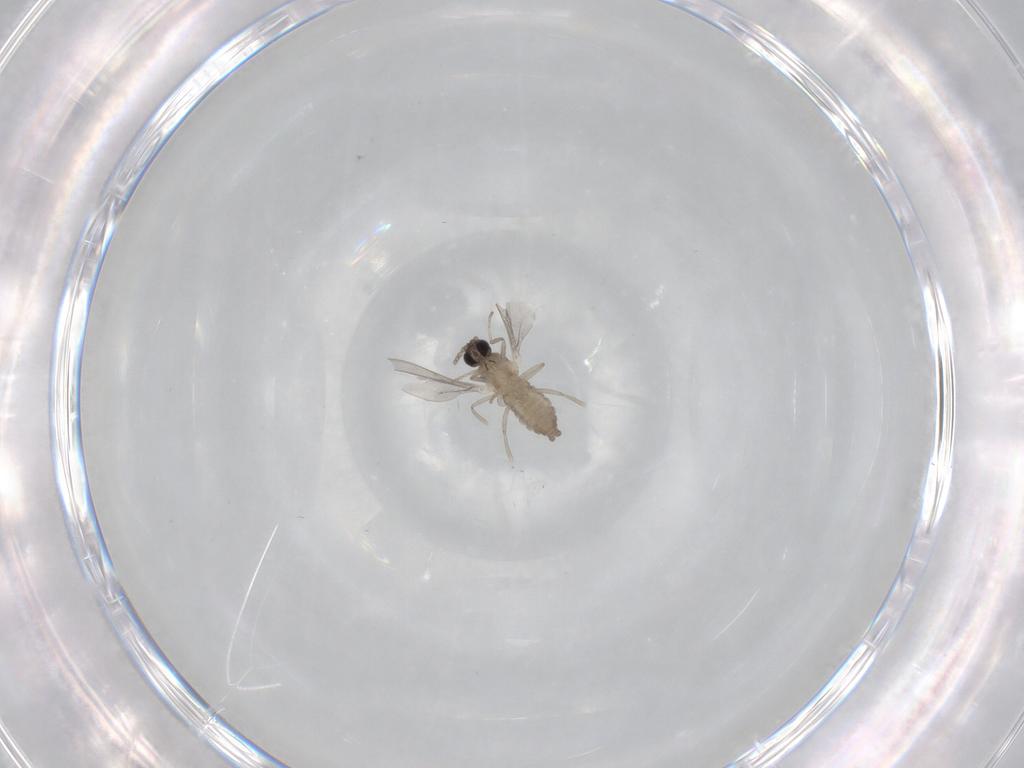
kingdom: Animalia
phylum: Arthropoda
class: Insecta
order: Diptera
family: Cecidomyiidae
